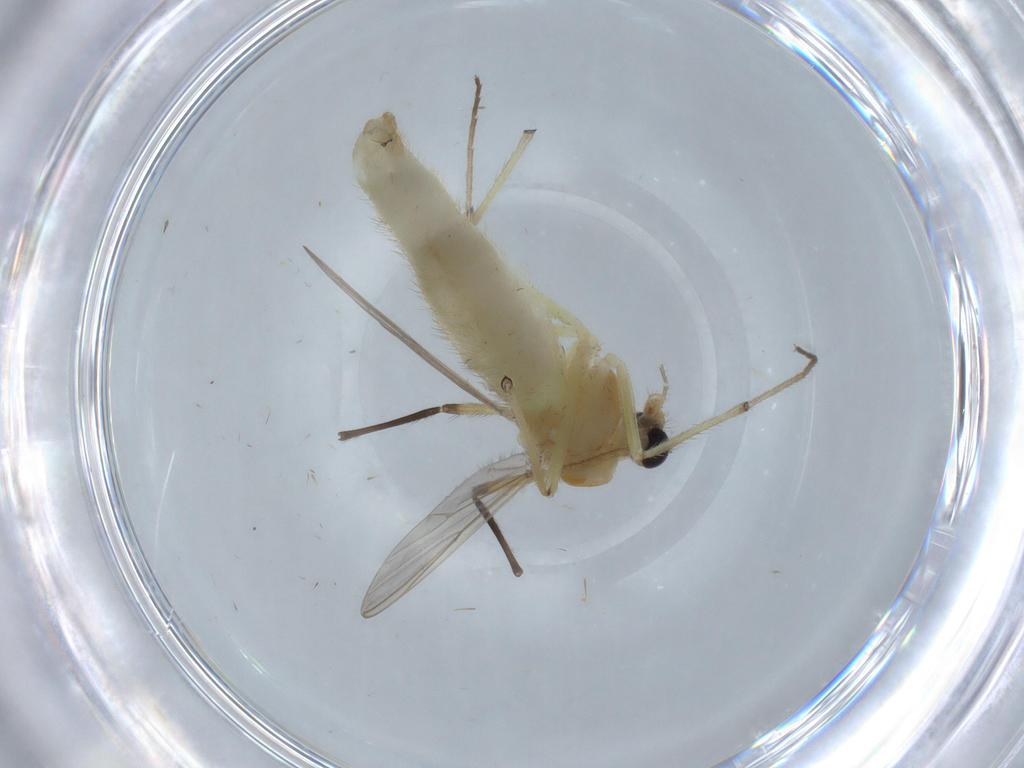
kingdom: Animalia
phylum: Arthropoda
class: Insecta
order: Diptera
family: Chironomidae
